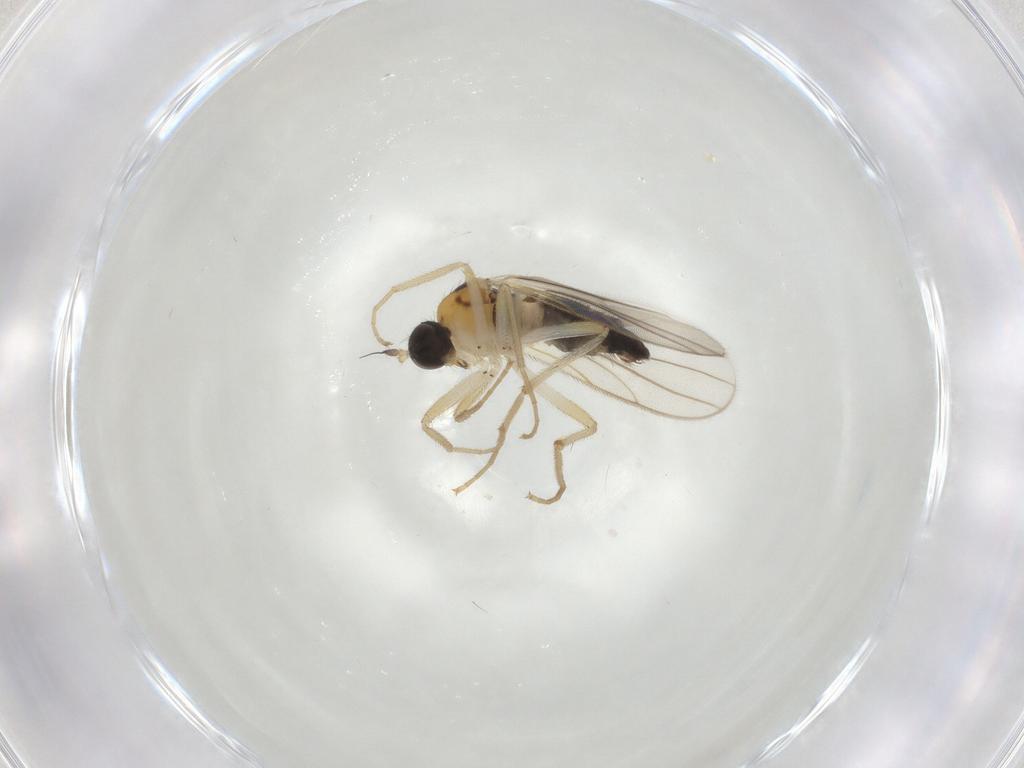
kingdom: Animalia
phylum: Arthropoda
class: Insecta
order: Diptera
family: Hybotidae
